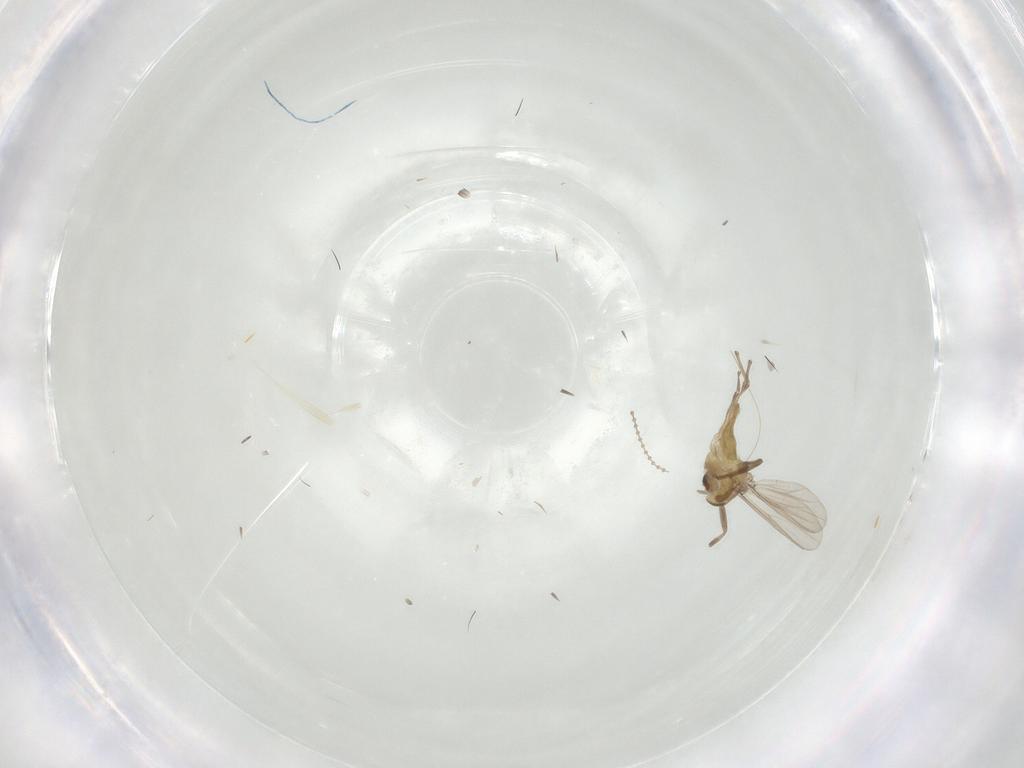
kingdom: Animalia
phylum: Arthropoda
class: Insecta
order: Diptera
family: Chironomidae
